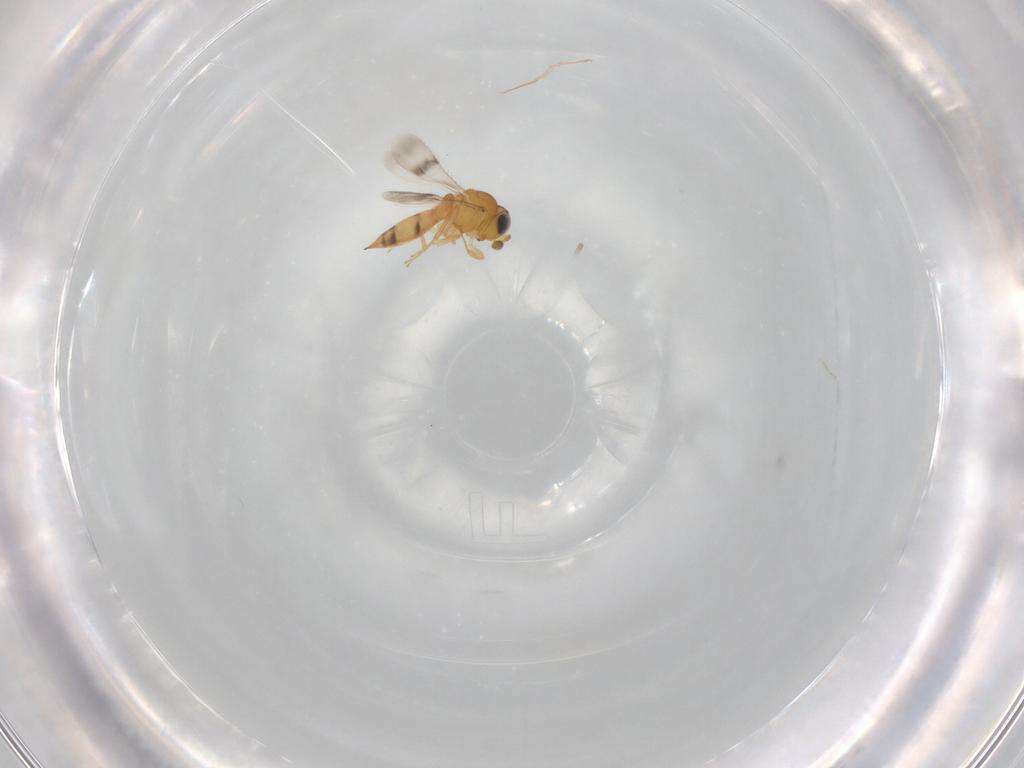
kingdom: Animalia
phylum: Arthropoda
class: Insecta
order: Hymenoptera
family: Scelionidae
